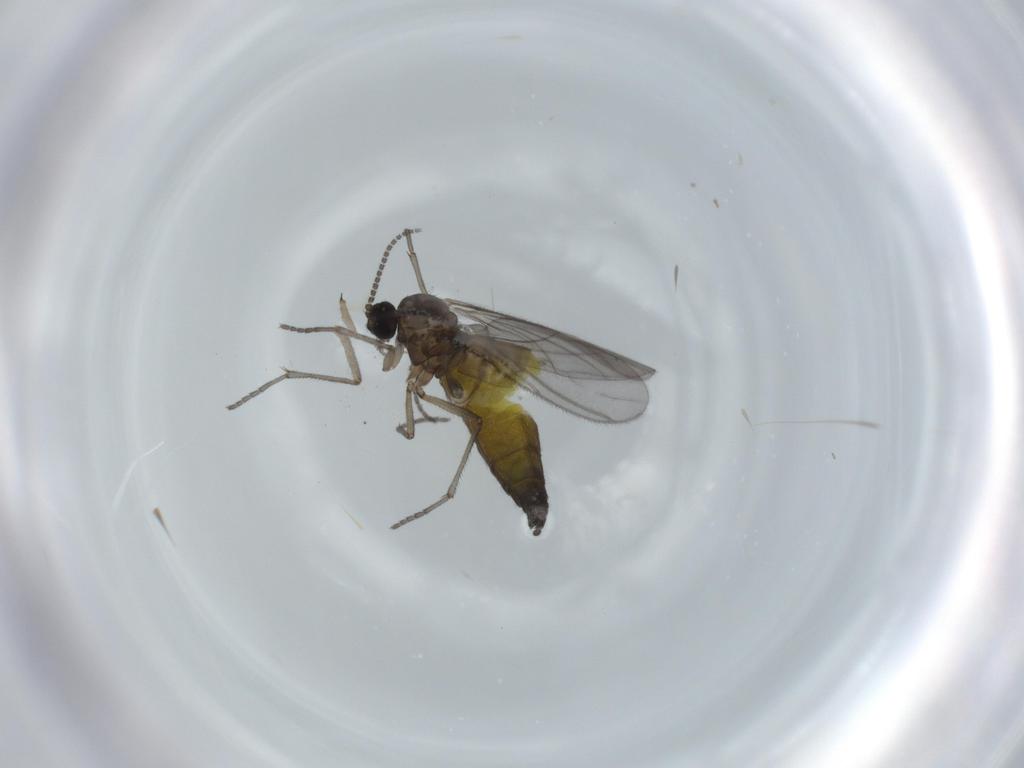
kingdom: Animalia
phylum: Arthropoda
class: Insecta
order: Diptera
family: Sciaridae
